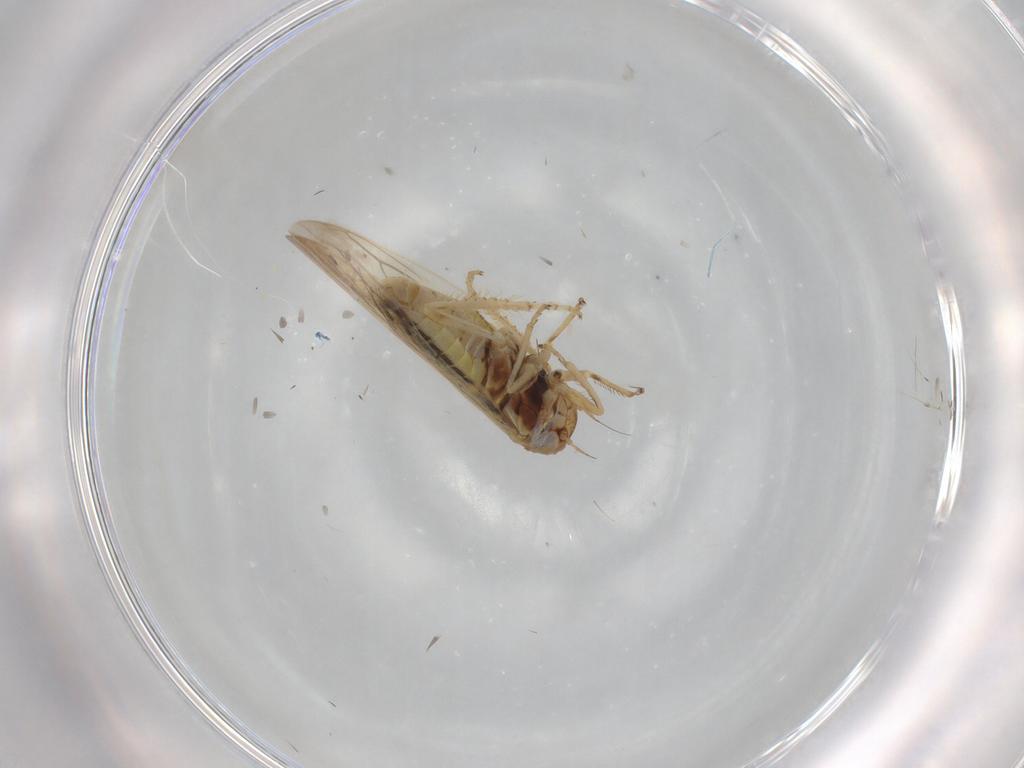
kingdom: Animalia
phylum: Arthropoda
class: Insecta
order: Hemiptera
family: Cicadellidae
